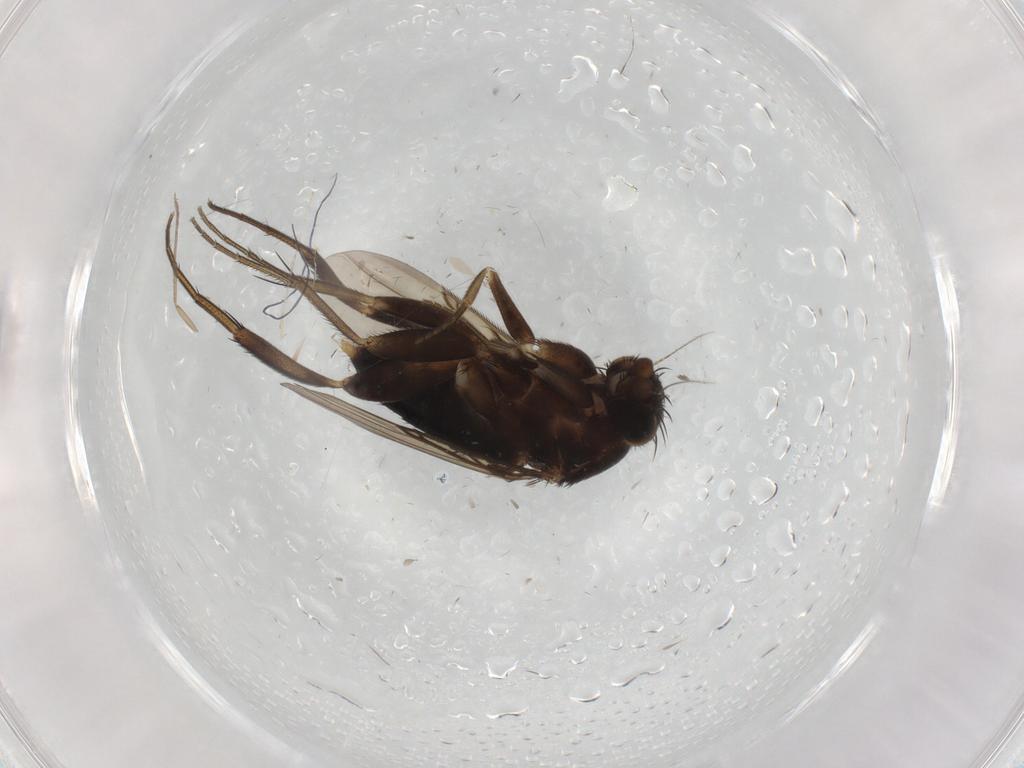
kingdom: Animalia
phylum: Arthropoda
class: Insecta
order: Diptera
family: Phoridae
